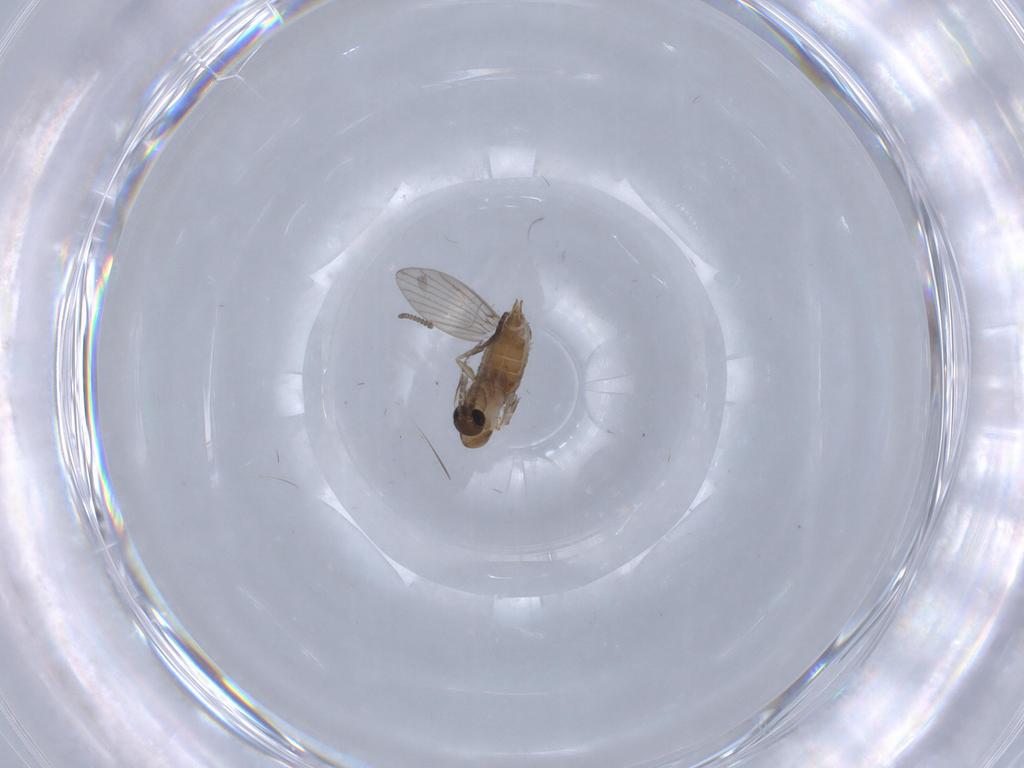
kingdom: Animalia
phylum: Arthropoda
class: Insecta
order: Diptera
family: Psychodidae
